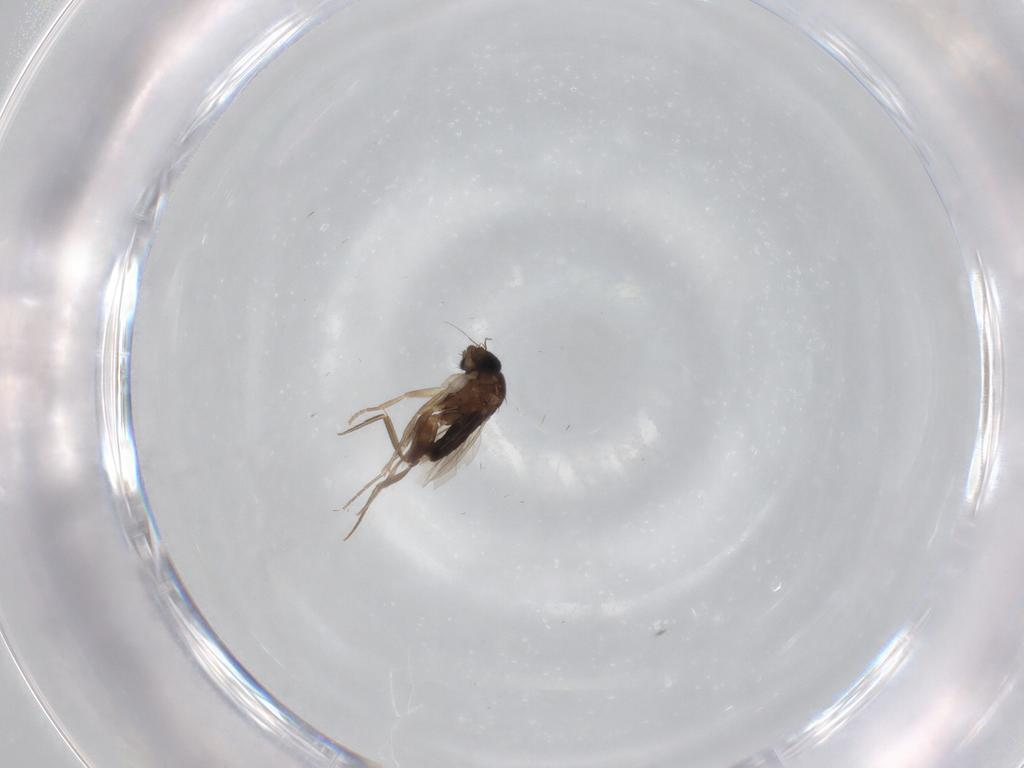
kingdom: Animalia
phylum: Arthropoda
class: Insecta
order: Diptera
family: Phoridae
